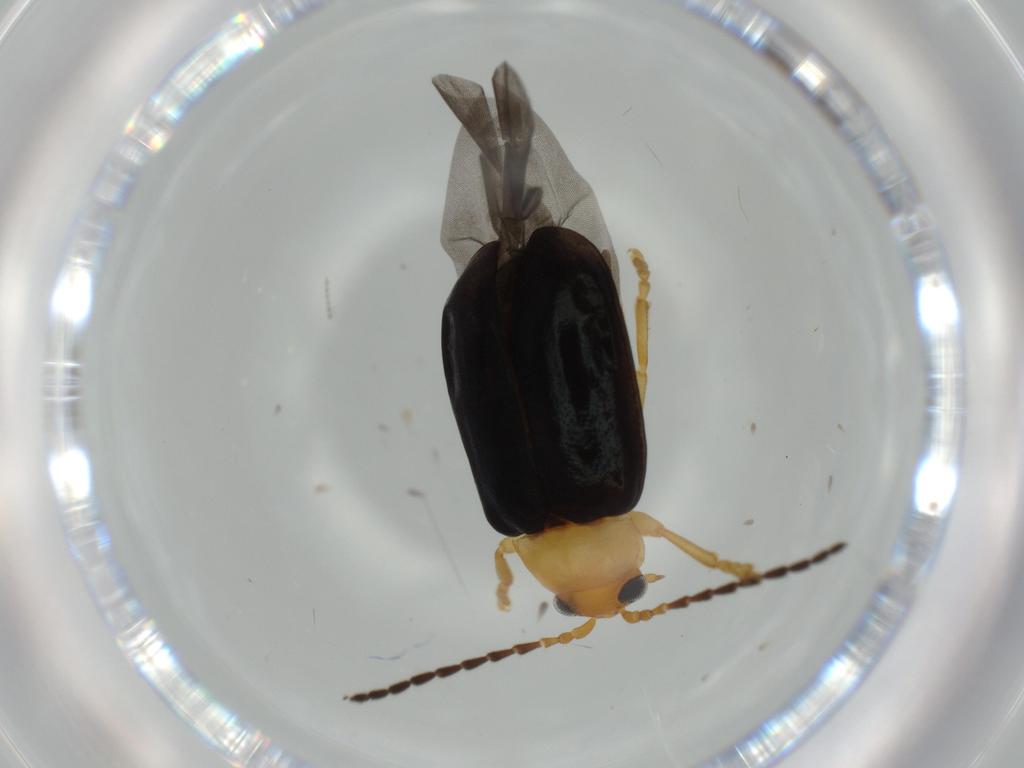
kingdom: Animalia
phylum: Arthropoda
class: Insecta
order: Coleoptera
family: Chrysomelidae
